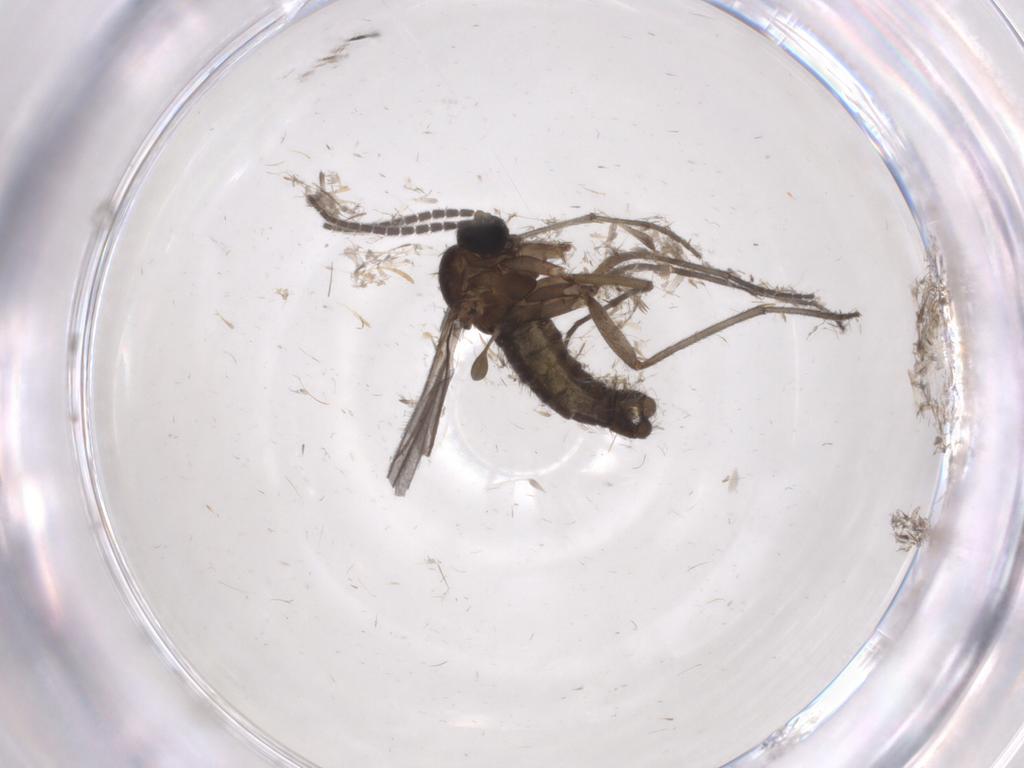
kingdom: Animalia
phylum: Arthropoda
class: Insecta
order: Diptera
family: Sciaridae
